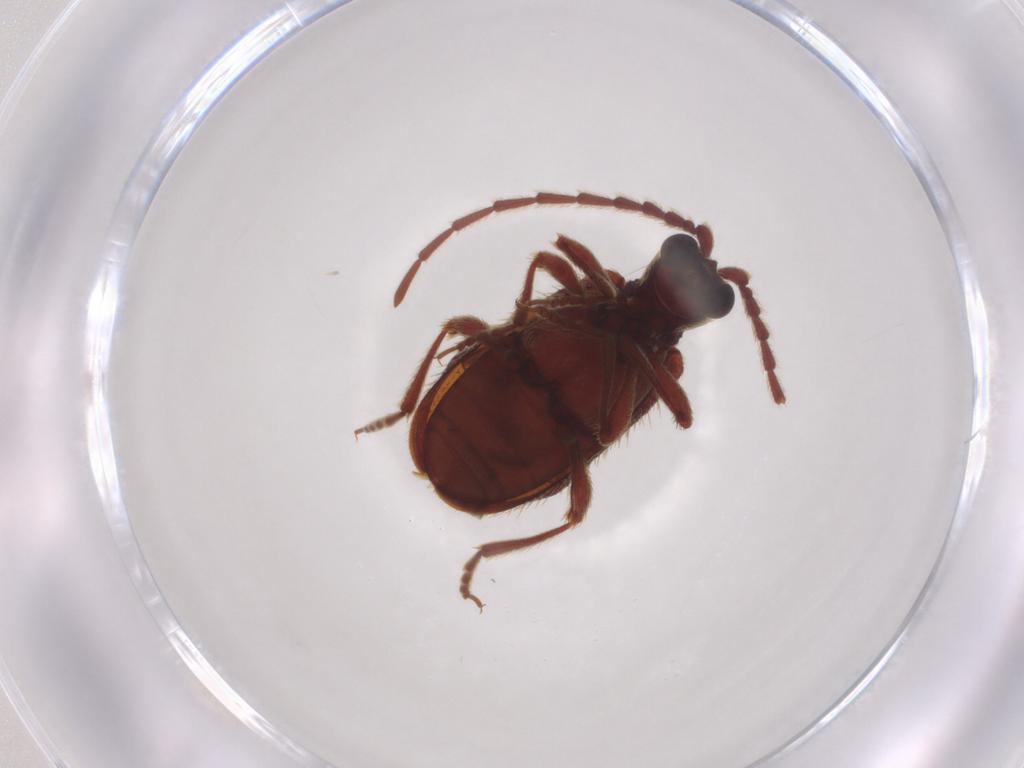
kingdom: Animalia
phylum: Arthropoda
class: Insecta
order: Coleoptera
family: Ptinidae
